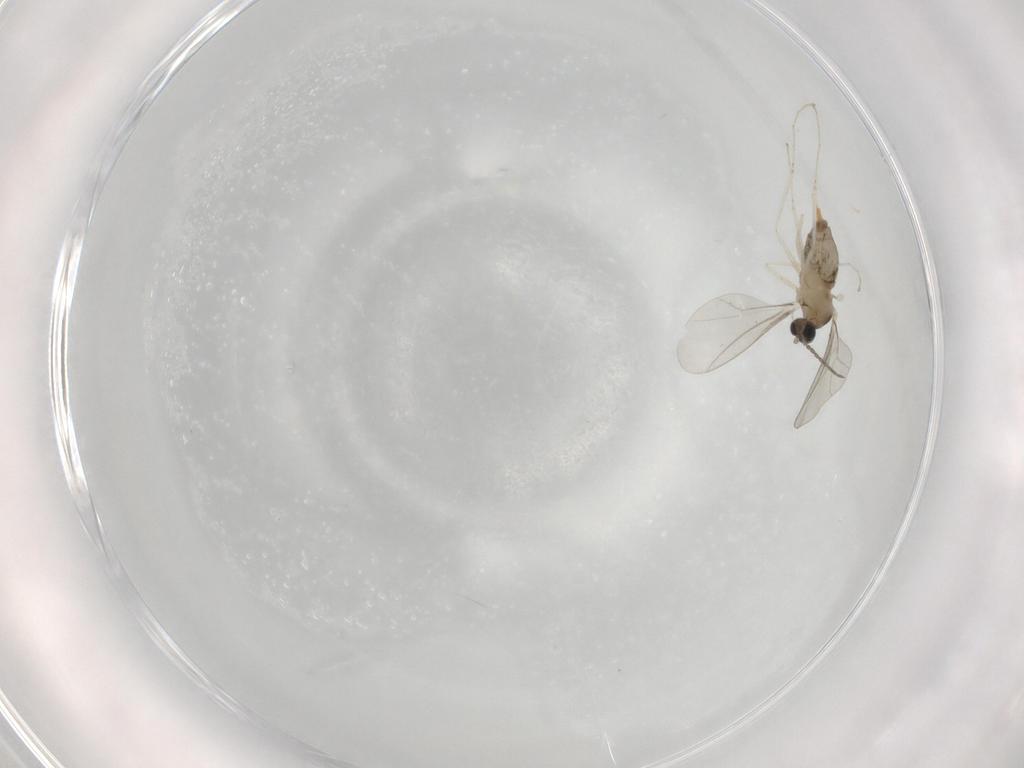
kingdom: Animalia
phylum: Arthropoda
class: Insecta
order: Diptera
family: Cecidomyiidae
